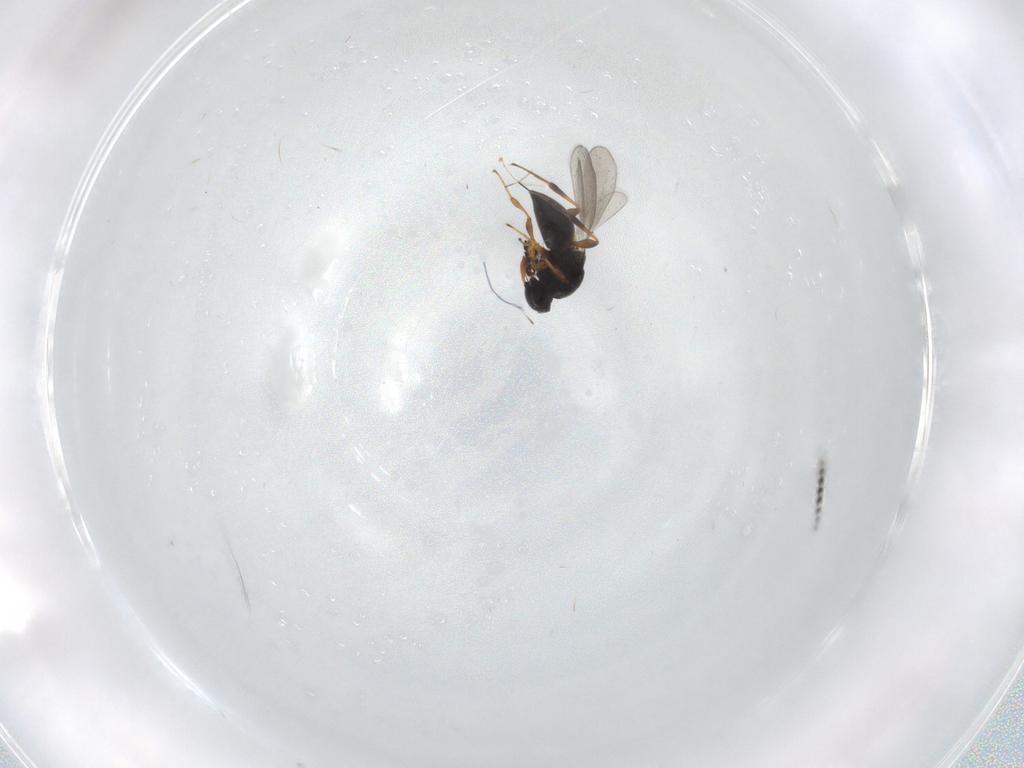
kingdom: Animalia
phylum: Arthropoda
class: Insecta
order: Hymenoptera
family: Platygastridae
